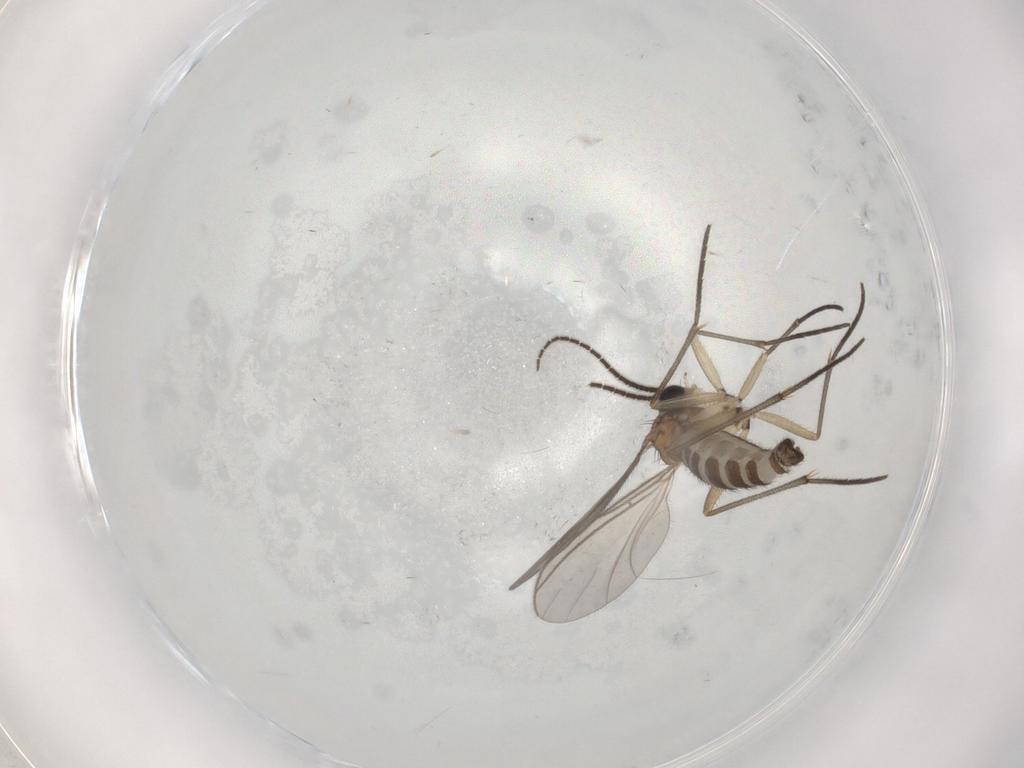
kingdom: Animalia
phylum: Arthropoda
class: Insecta
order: Diptera
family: Sciaridae
